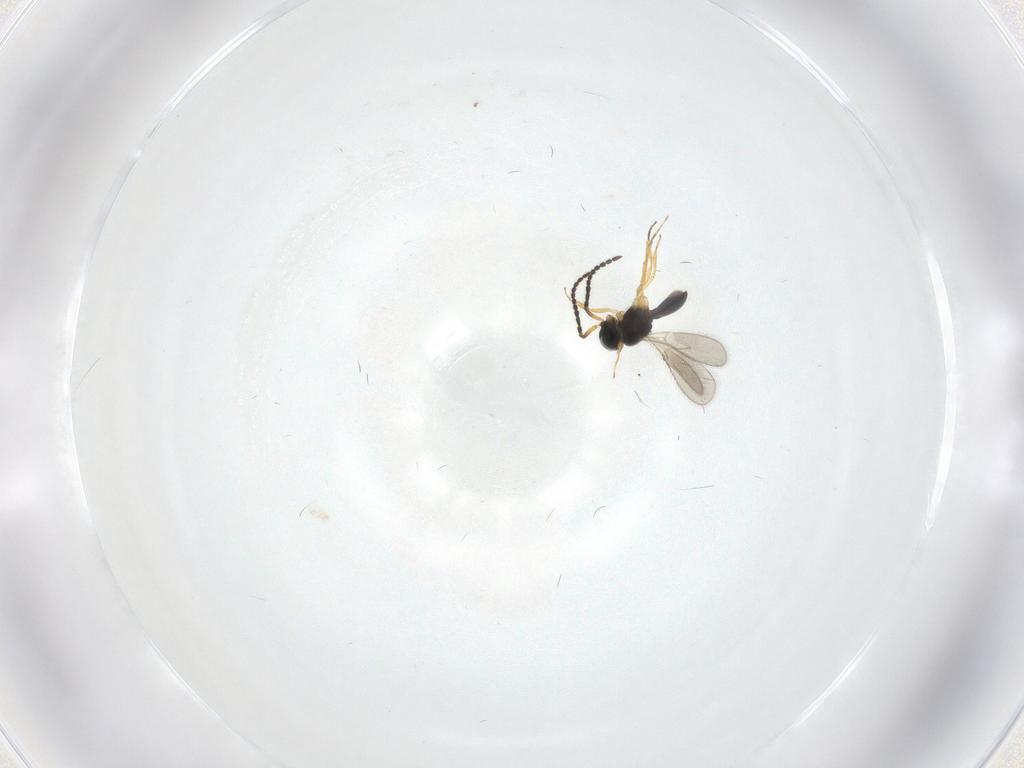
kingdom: Animalia
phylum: Arthropoda
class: Insecta
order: Hymenoptera
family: Scelionidae
